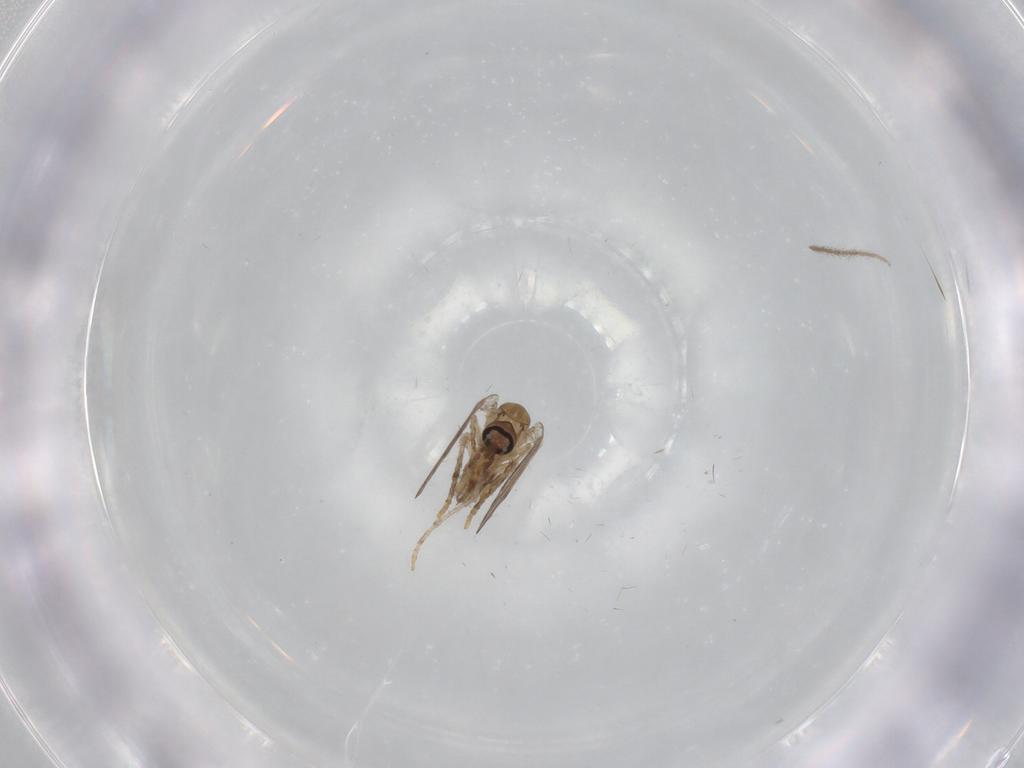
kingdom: Animalia
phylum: Arthropoda
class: Insecta
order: Diptera
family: Psychodidae
